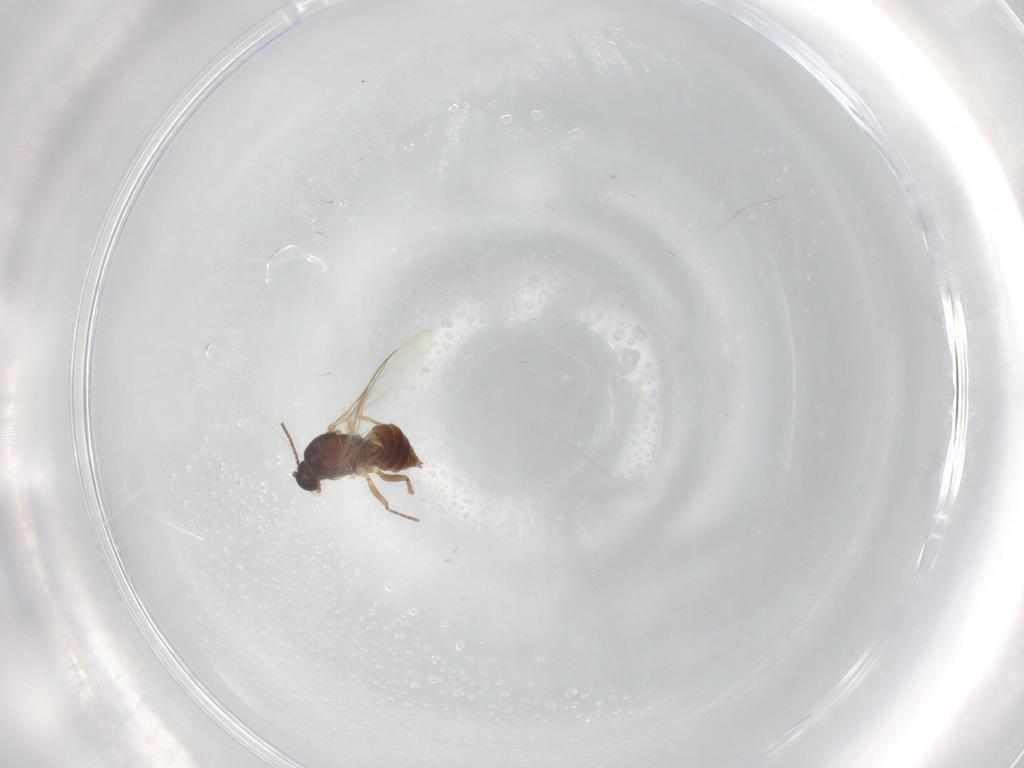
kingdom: Animalia
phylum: Arthropoda
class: Insecta
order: Diptera
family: Sciaridae
